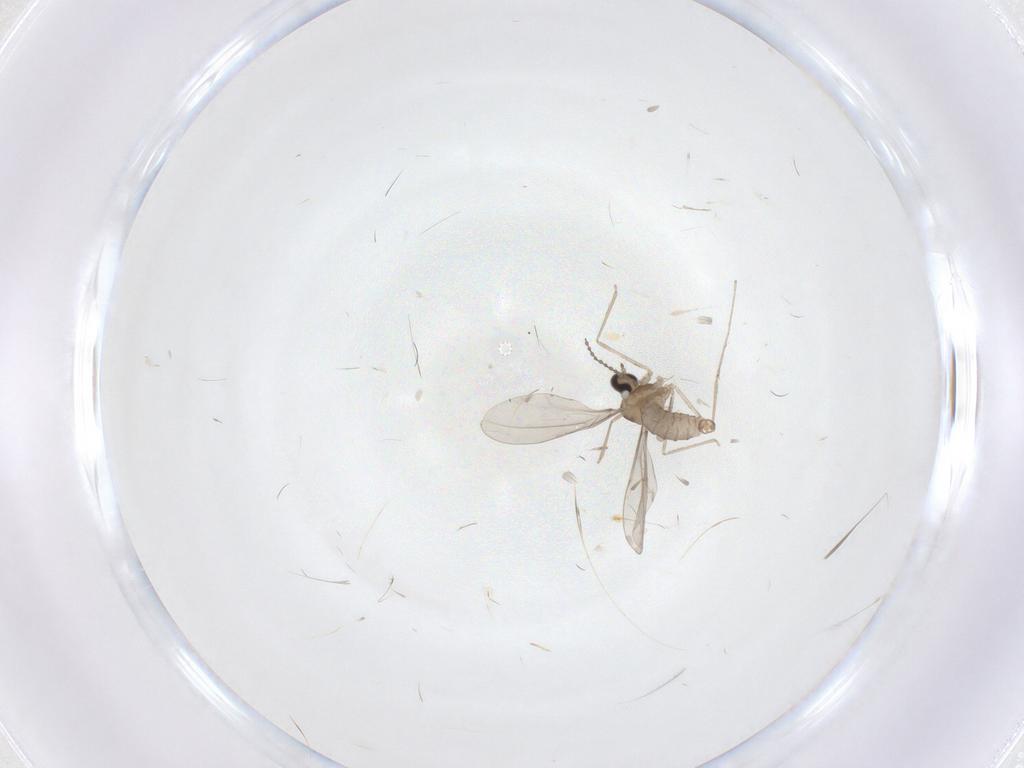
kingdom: Animalia
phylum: Arthropoda
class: Insecta
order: Diptera
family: Cecidomyiidae
